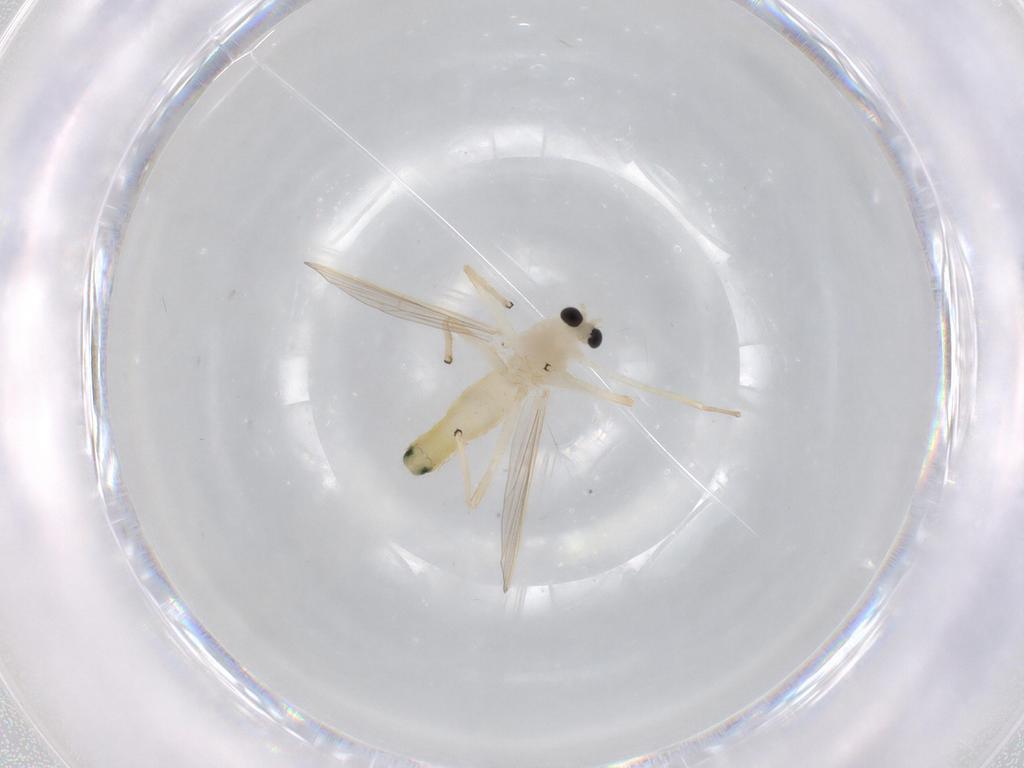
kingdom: Animalia
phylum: Arthropoda
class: Insecta
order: Diptera
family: Chironomidae
